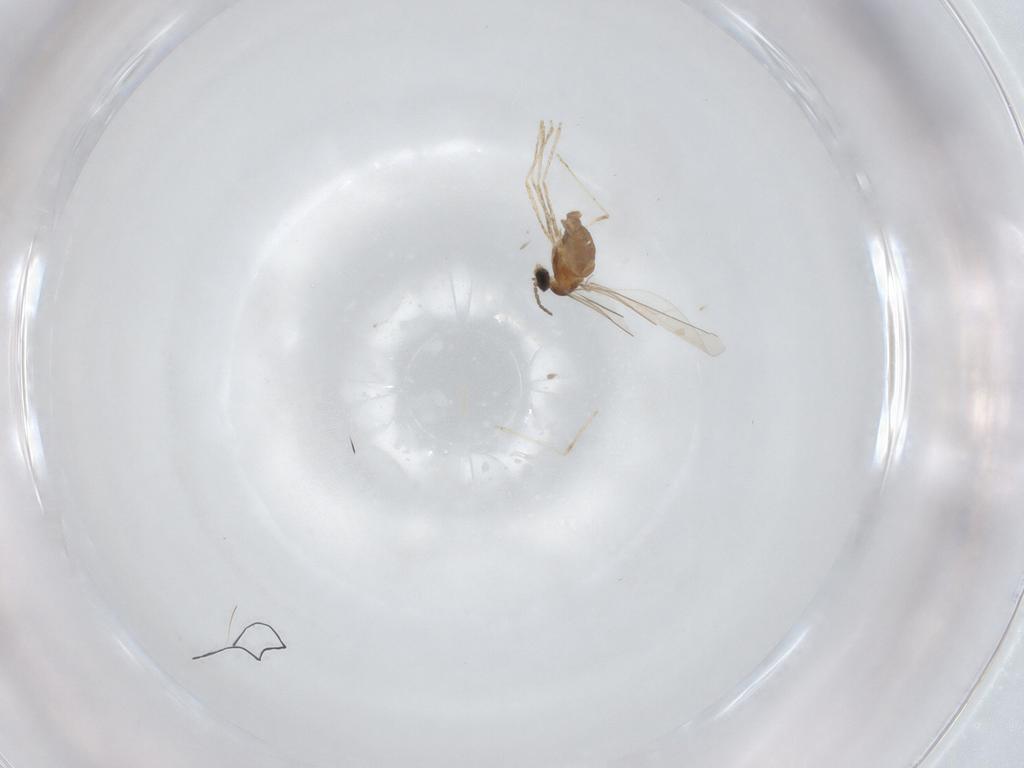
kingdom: Animalia
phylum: Arthropoda
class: Insecta
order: Diptera
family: Cecidomyiidae
